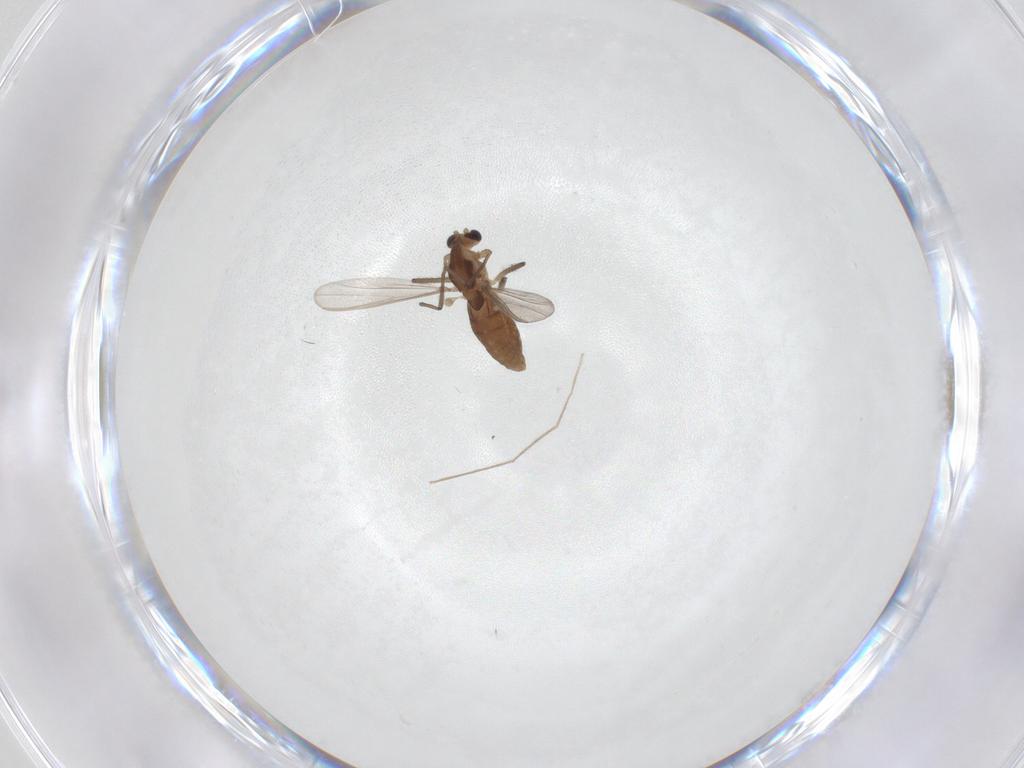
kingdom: Animalia
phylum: Arthropoda
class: Insecta
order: Diptera
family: Chironomidae
